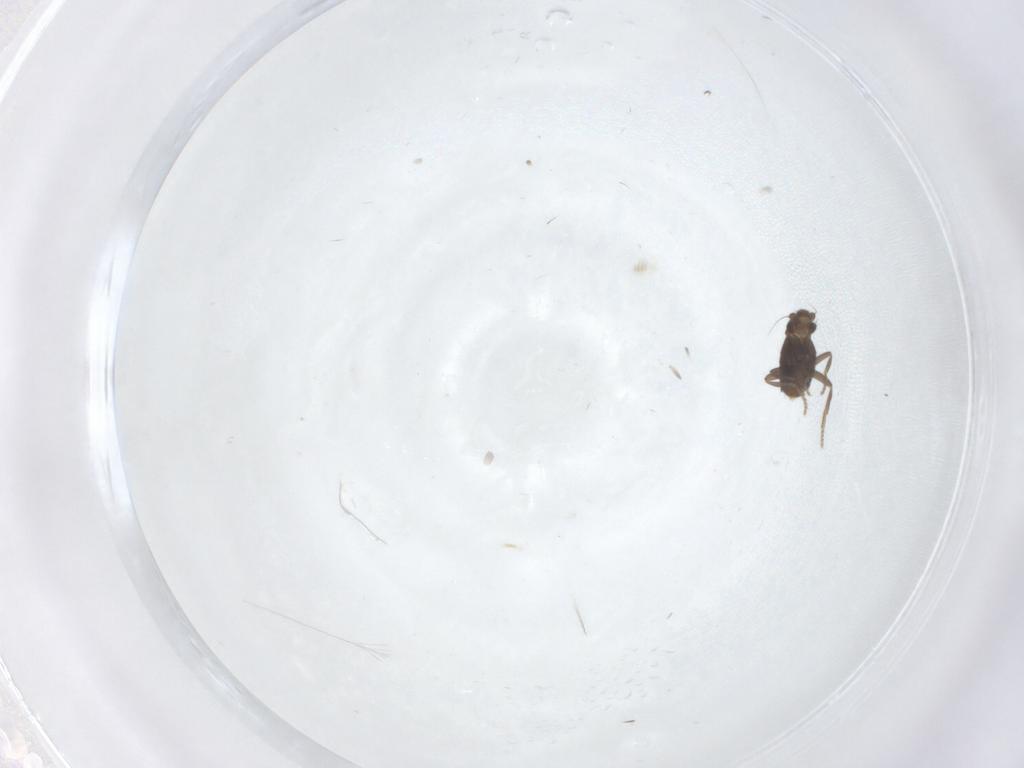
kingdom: Animalia
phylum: Arthropoda
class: Insecta
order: Diptera
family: Phoridae
